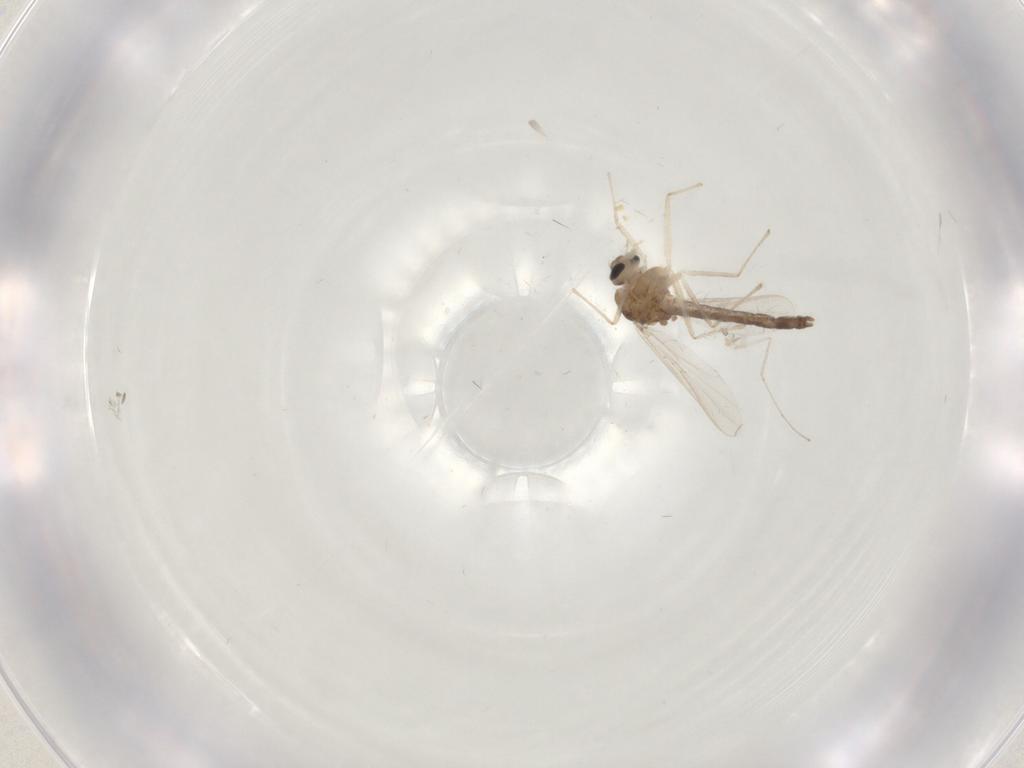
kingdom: Animalia
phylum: Arthropoda
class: Insecta
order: Diptera
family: Chironomidae
